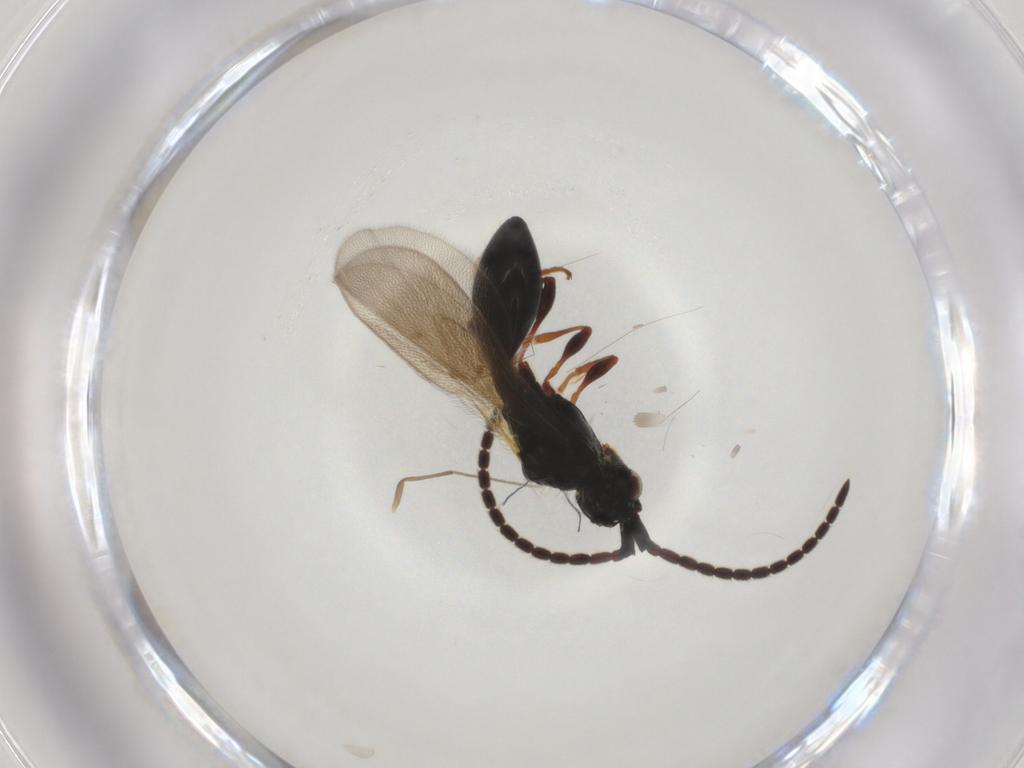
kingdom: Animalia
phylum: Arthropoda
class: Insecta
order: Hymenoptera
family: Diapriidae
